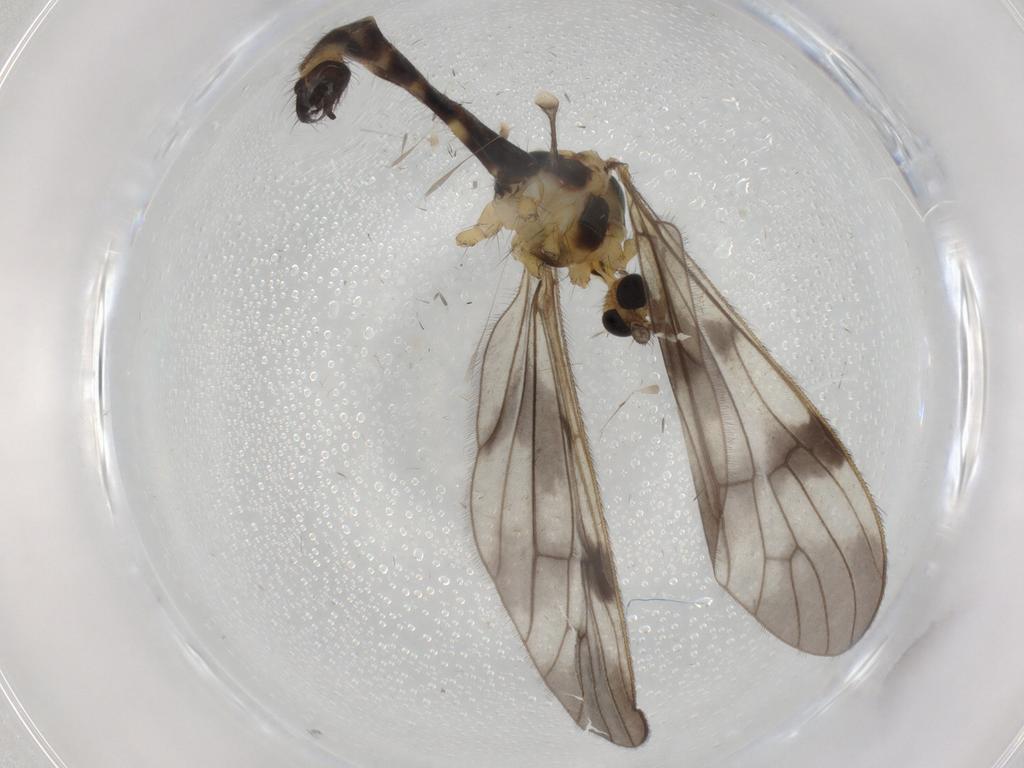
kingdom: Animalia
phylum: Arthropoda
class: Insecta
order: Diptera
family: Limoniidae
